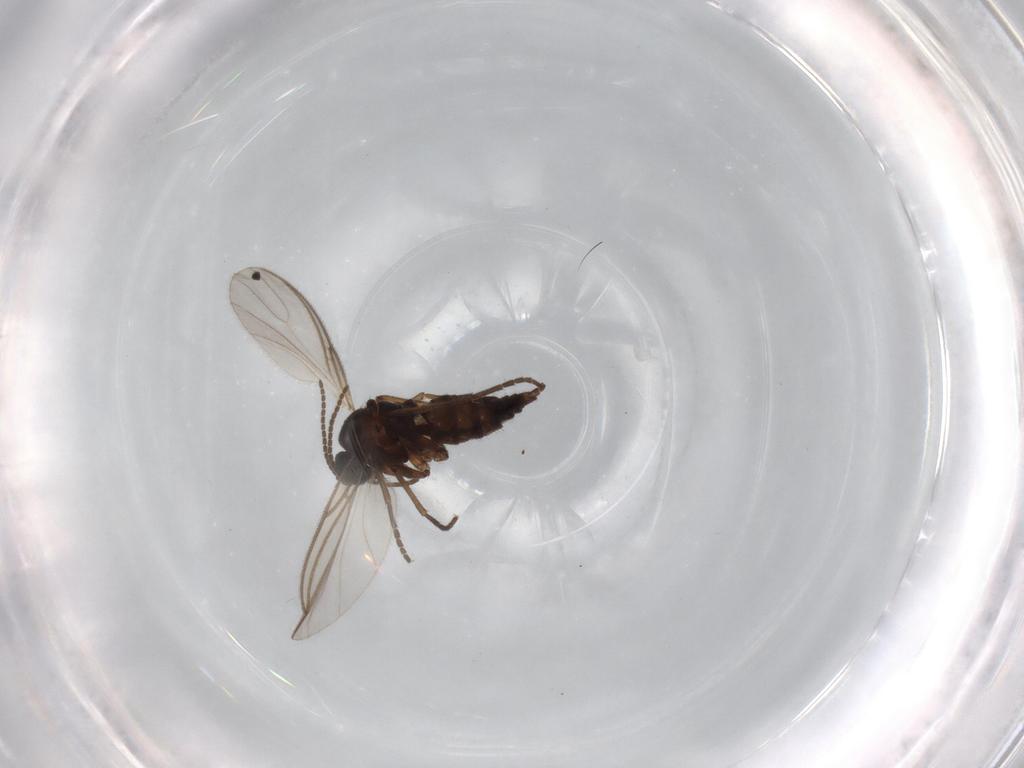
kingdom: Animalia
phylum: Arthropoda
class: Insecta
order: Diptera
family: Sciaridae
